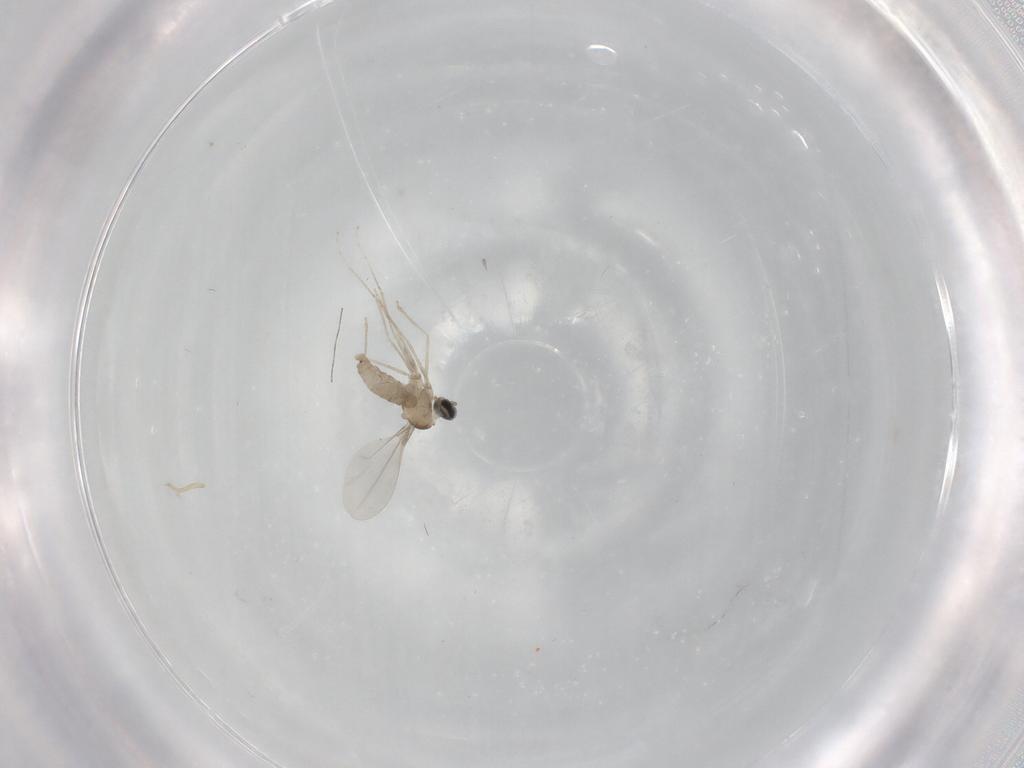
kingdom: Animalia
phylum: Arthropoda
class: Insecta
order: Diptera
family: Cecidomyiidae
